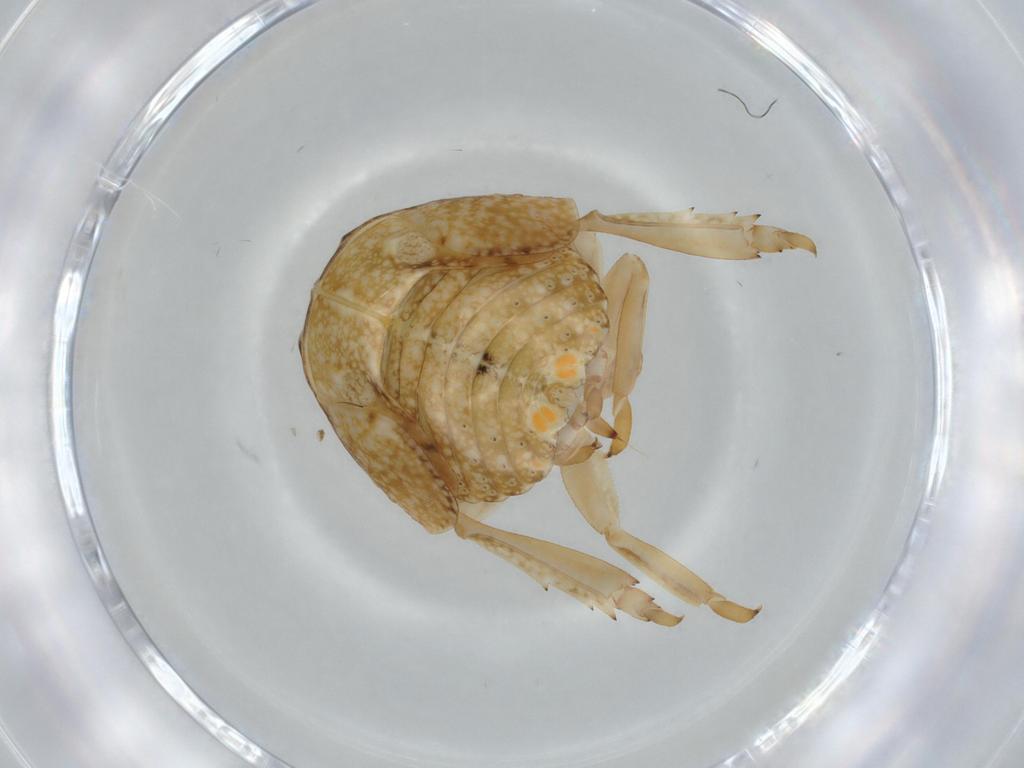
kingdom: Animalia
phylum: Arthropoda
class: Insecta
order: Hemiptera
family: Acanaloniidae
